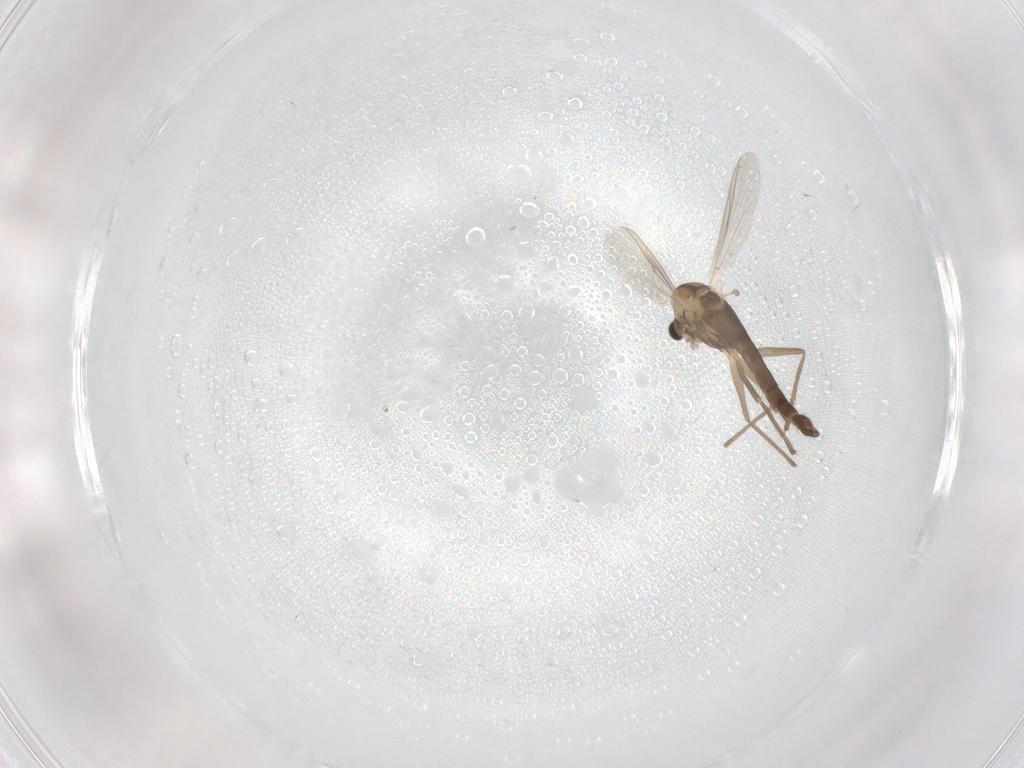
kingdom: Animalia
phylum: Arthropoda
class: Insecta
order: Diptera
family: Chironomidae
